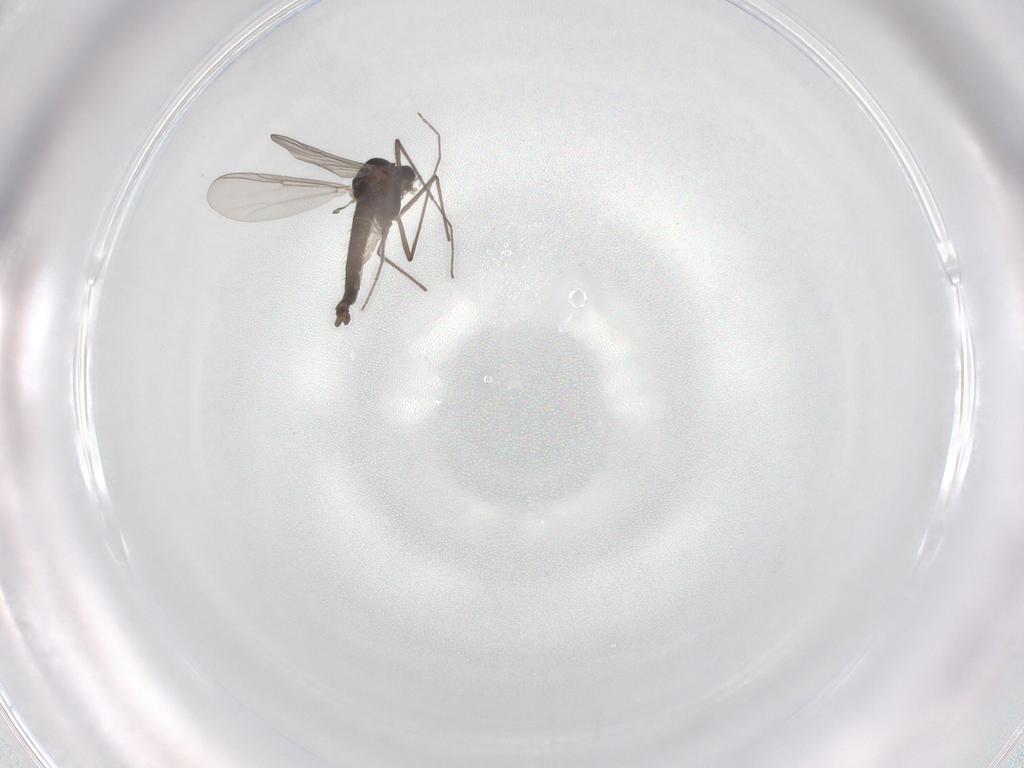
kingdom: Animalia
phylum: Arthropoda
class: Insecta
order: Diptera
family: Chironomidae
